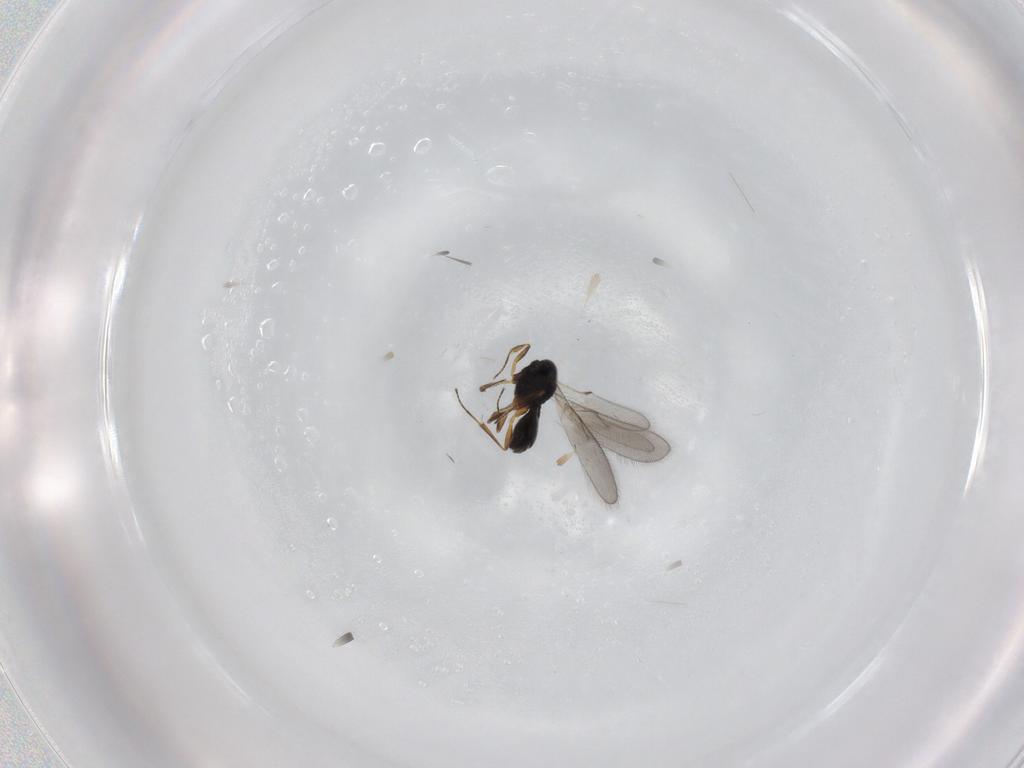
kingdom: Animalia
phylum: Arthropoda
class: Insecta
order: Hymenoptera
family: Scelionidae
